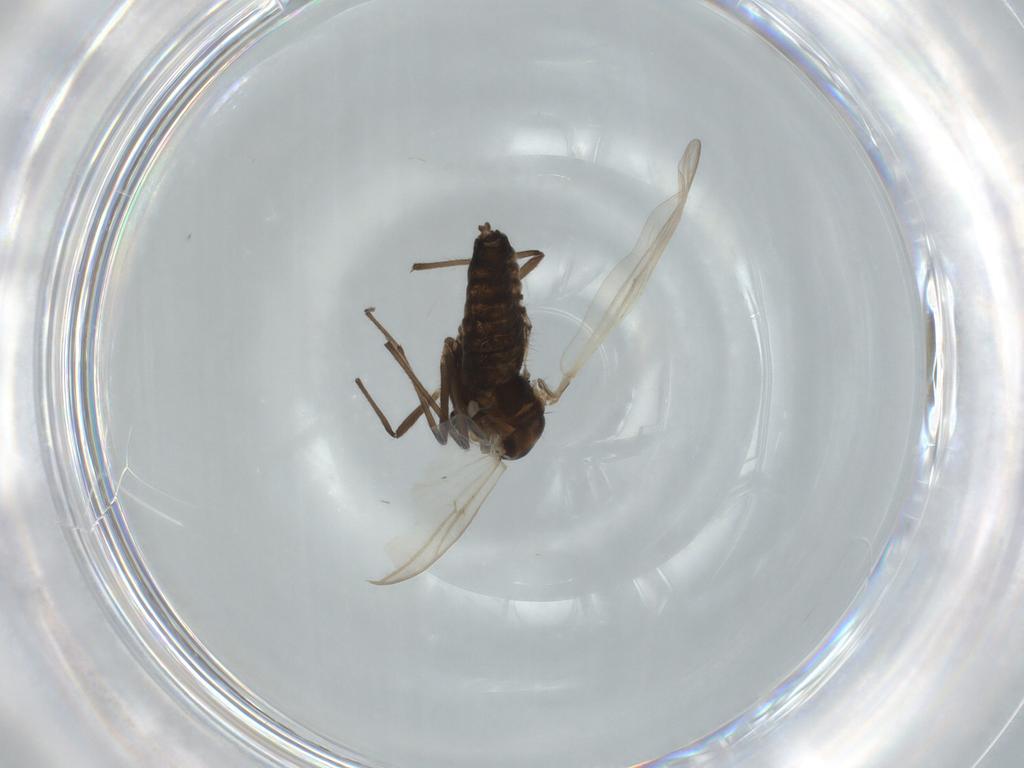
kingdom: Animalia
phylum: Arthropoda
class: Insecta
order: Diptera
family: Chironomidae
